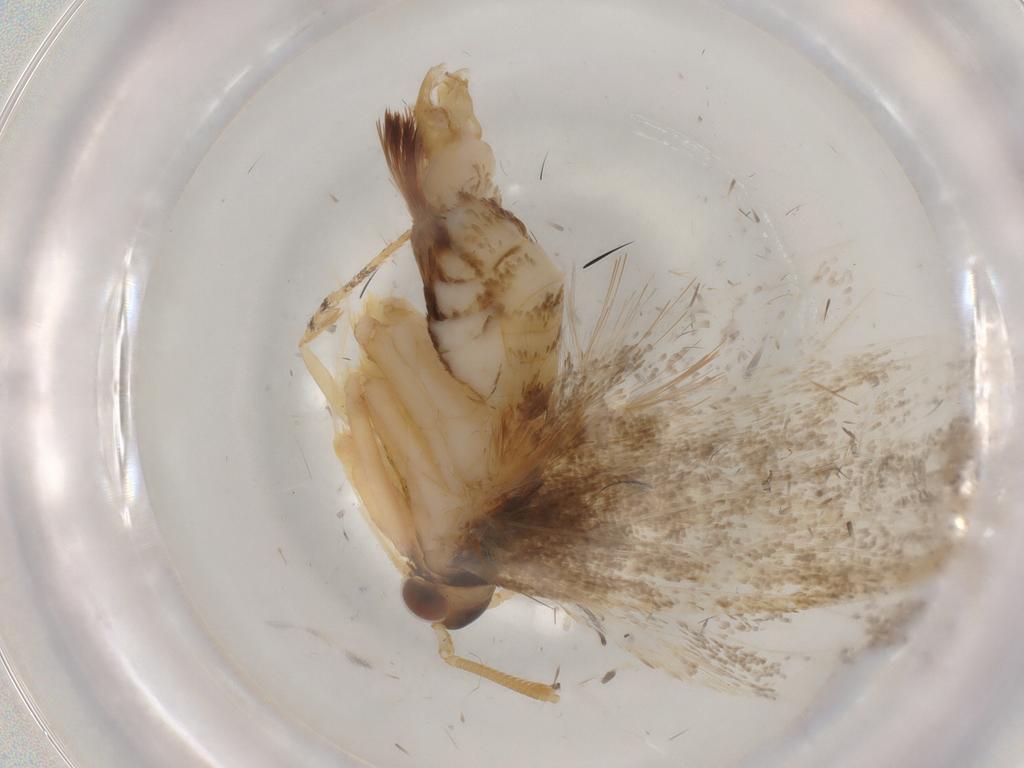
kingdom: Animalia
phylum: Arthropoda
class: Insecta
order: Lepidoptera
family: Lecithoceridae
